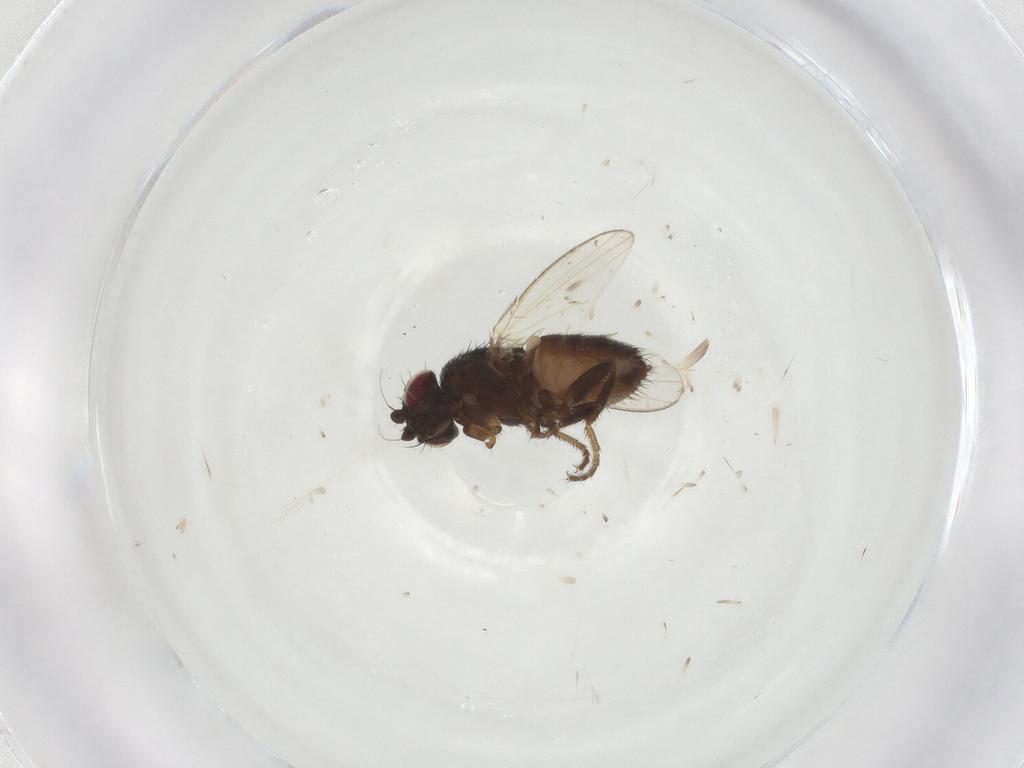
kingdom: Animalia
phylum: Arthropoda
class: Insecta
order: Diptera
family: Milichiidae
